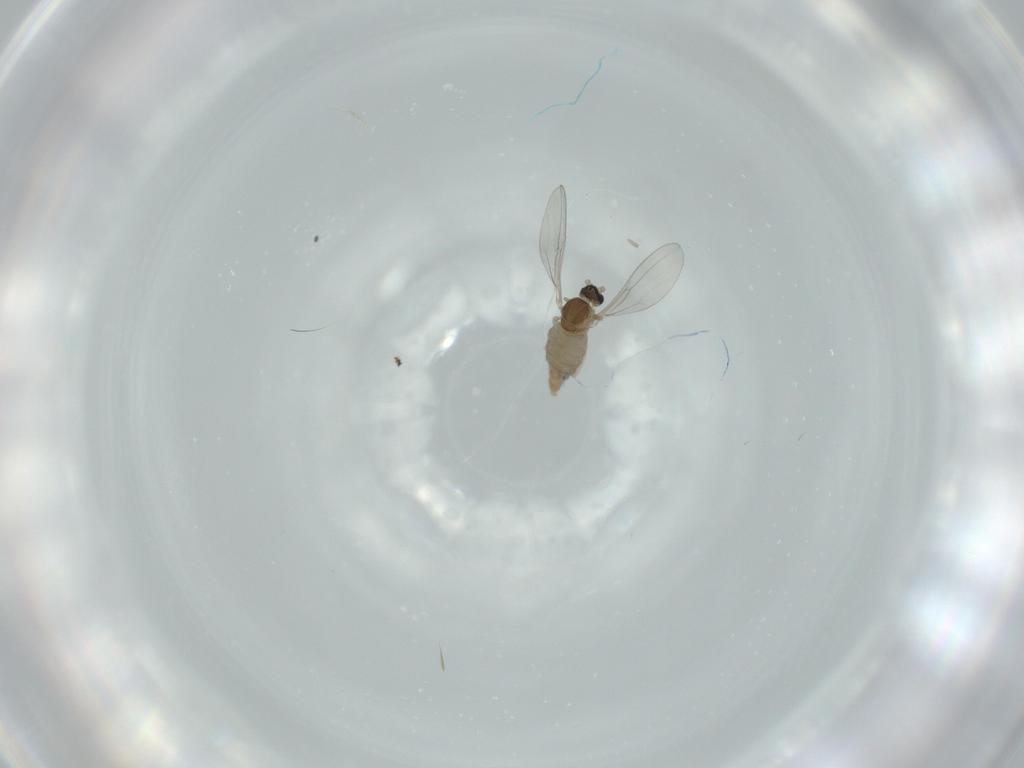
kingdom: Animalia
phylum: Arthropoda
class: Insecta
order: Diptera
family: Cecidomyiidae
